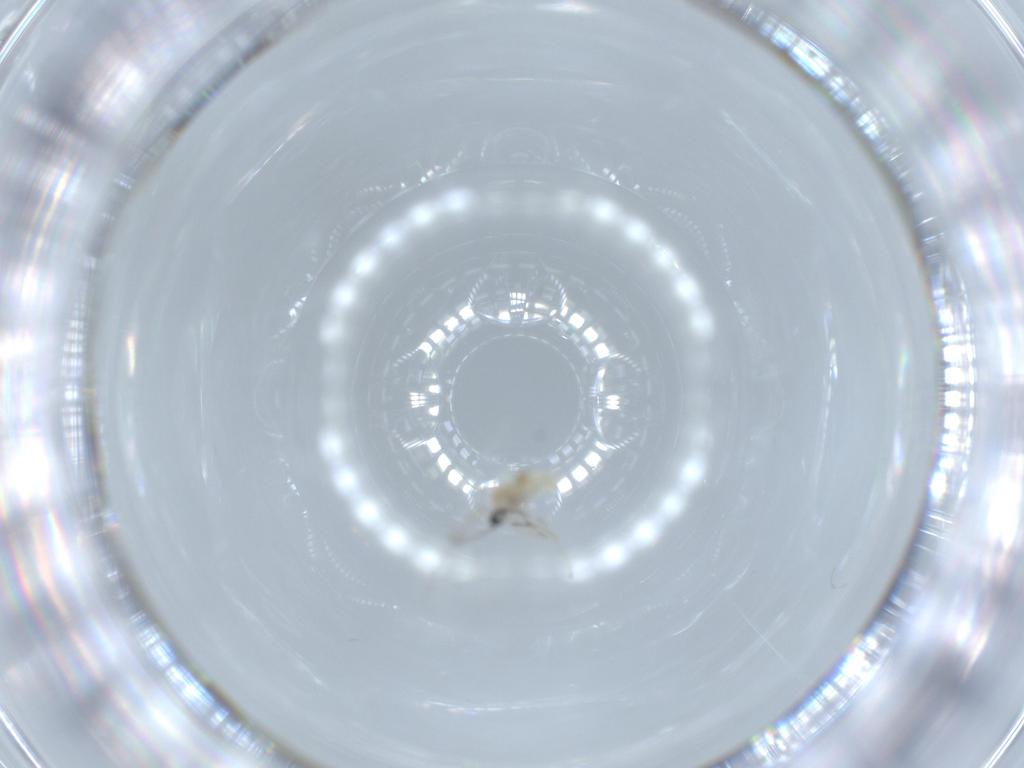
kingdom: Animalia
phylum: Arthropoda
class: Insecta
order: Diptera
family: Cecidomyiidae
